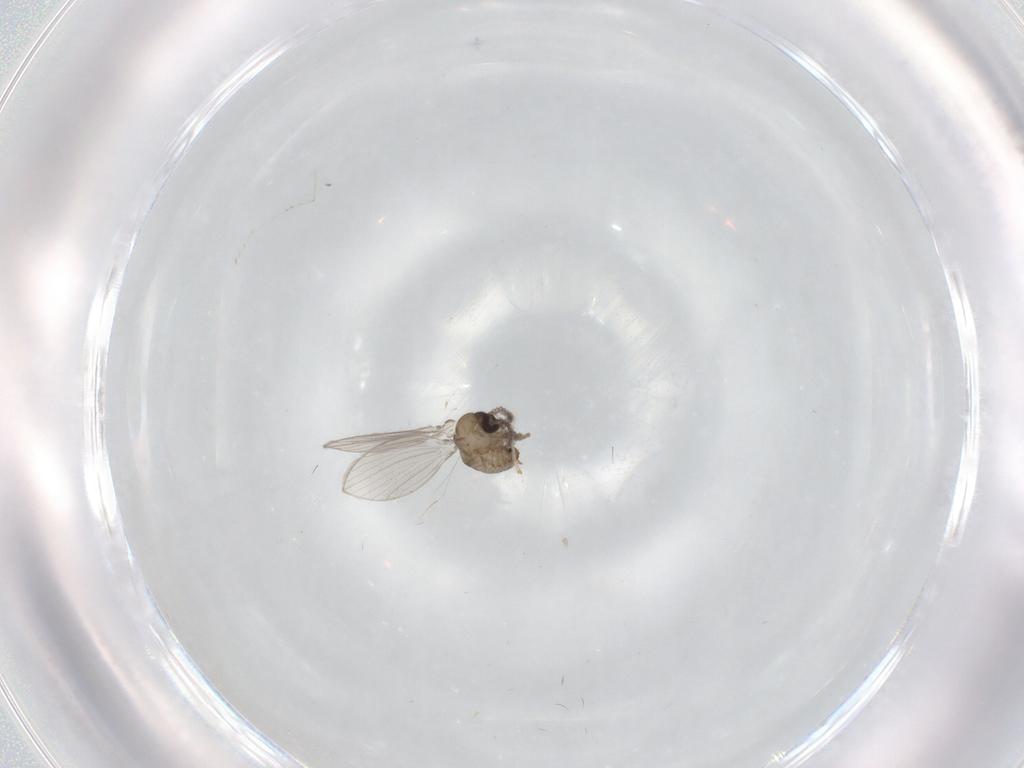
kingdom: Animalia
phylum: Arthropoda
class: Insecta
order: Diptera
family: Psychodidae
